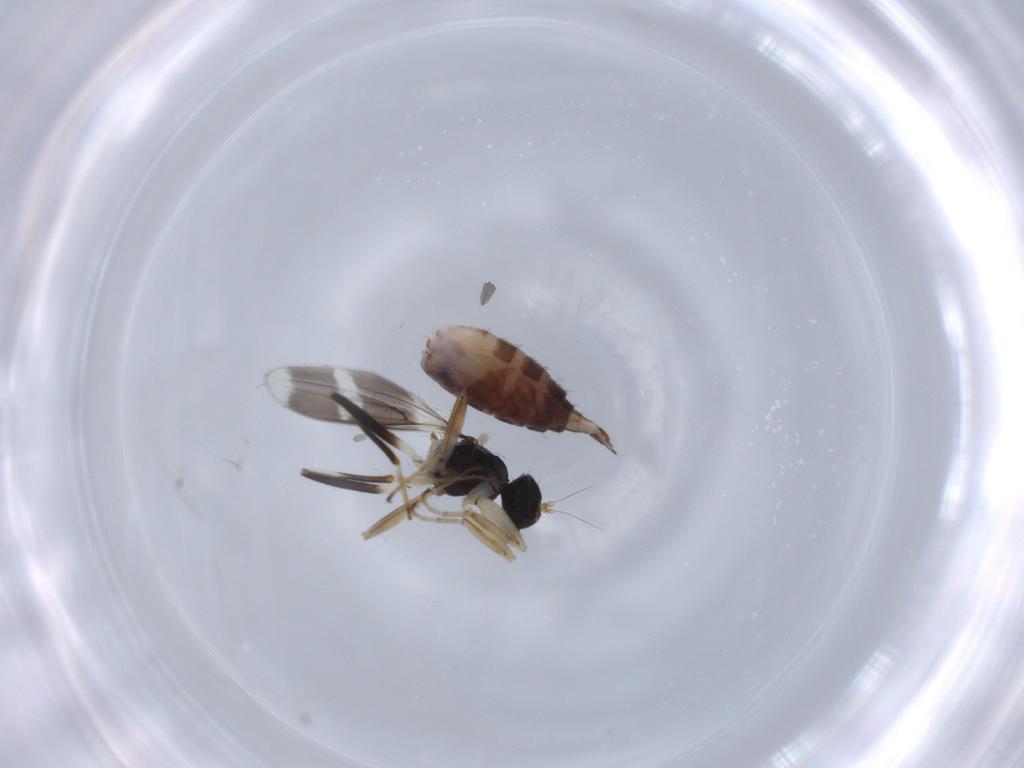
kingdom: Animalia
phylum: Arthropoda
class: Insecta
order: Diptera
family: Hybotidae
